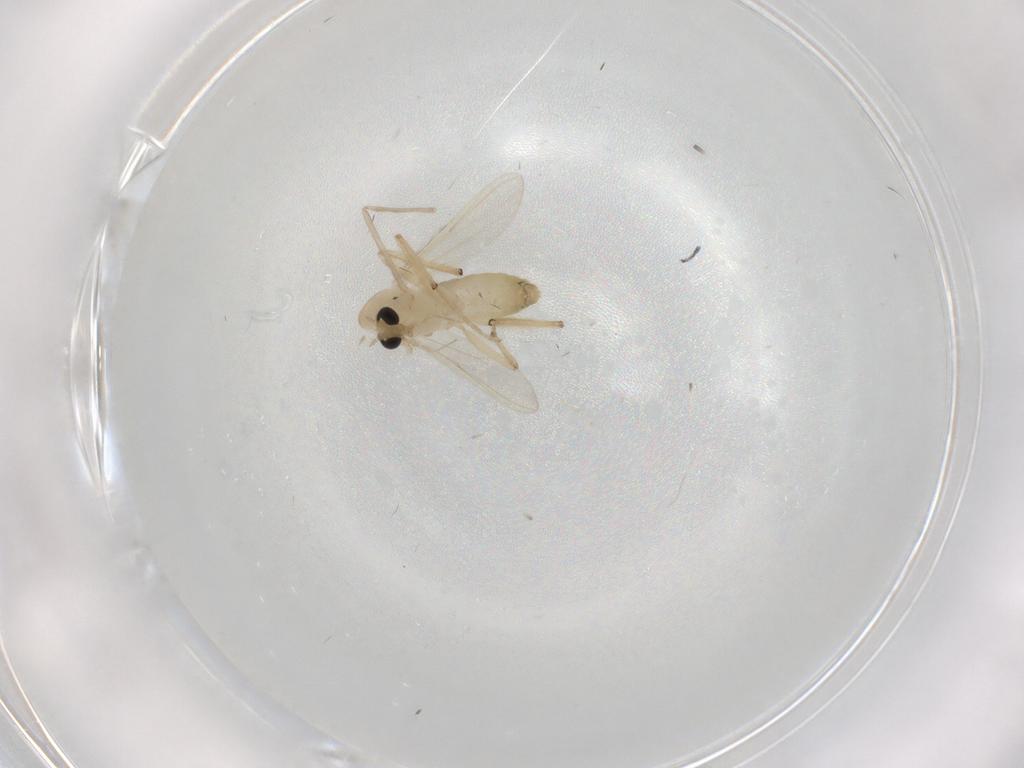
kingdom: Animalia
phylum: Arthropoda
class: Insecta
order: Diptera
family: Chironomidae
